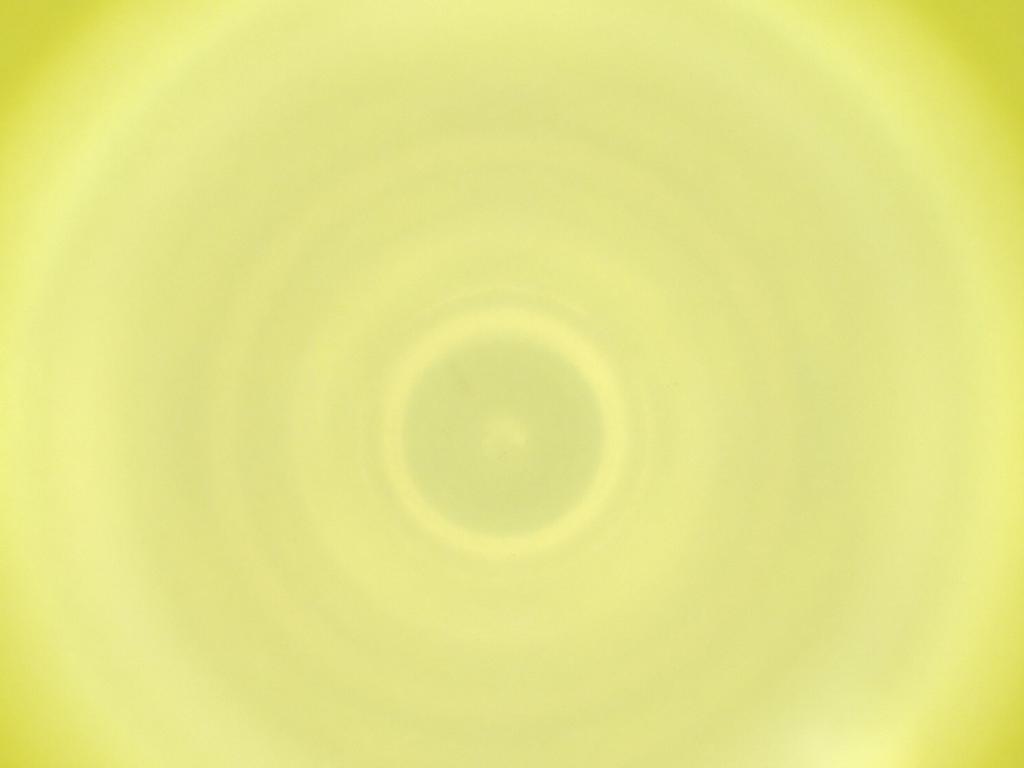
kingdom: Animalia
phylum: Arthropoda
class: Insecta
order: Diptera
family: Cecidomyiidae
